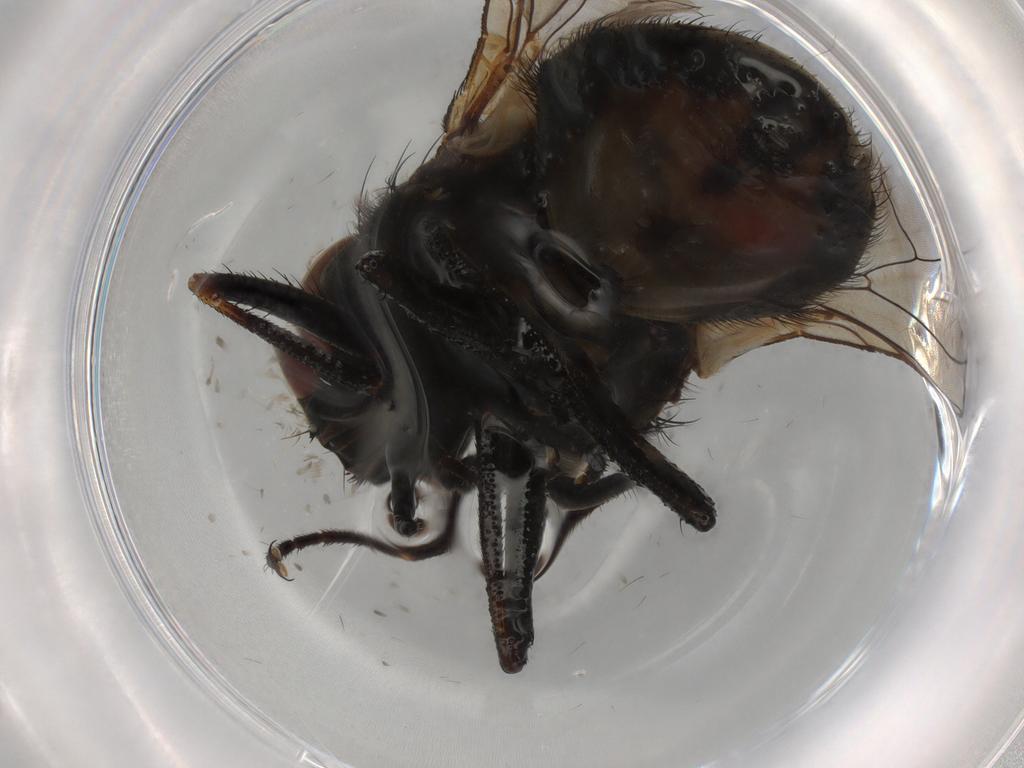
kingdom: Animalia
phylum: Arthropoda
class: Insecta
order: Diptera
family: Muscidae
